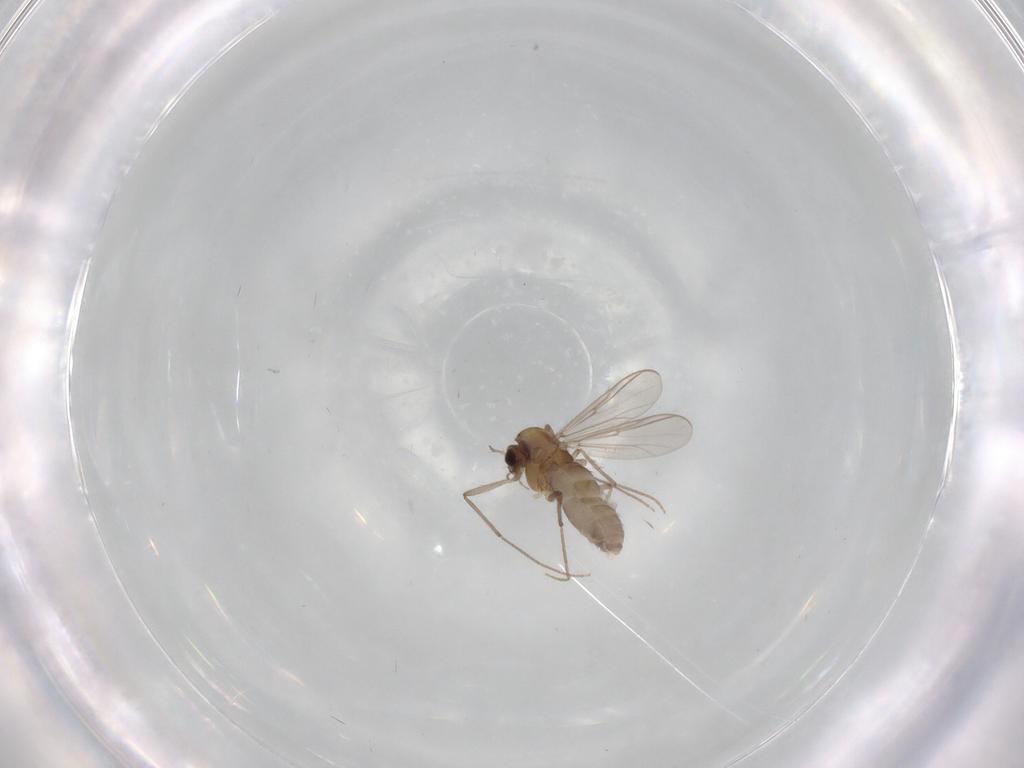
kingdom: Animalia
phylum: Arthropoda
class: Insecta
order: Diptera
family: Chironomidae
